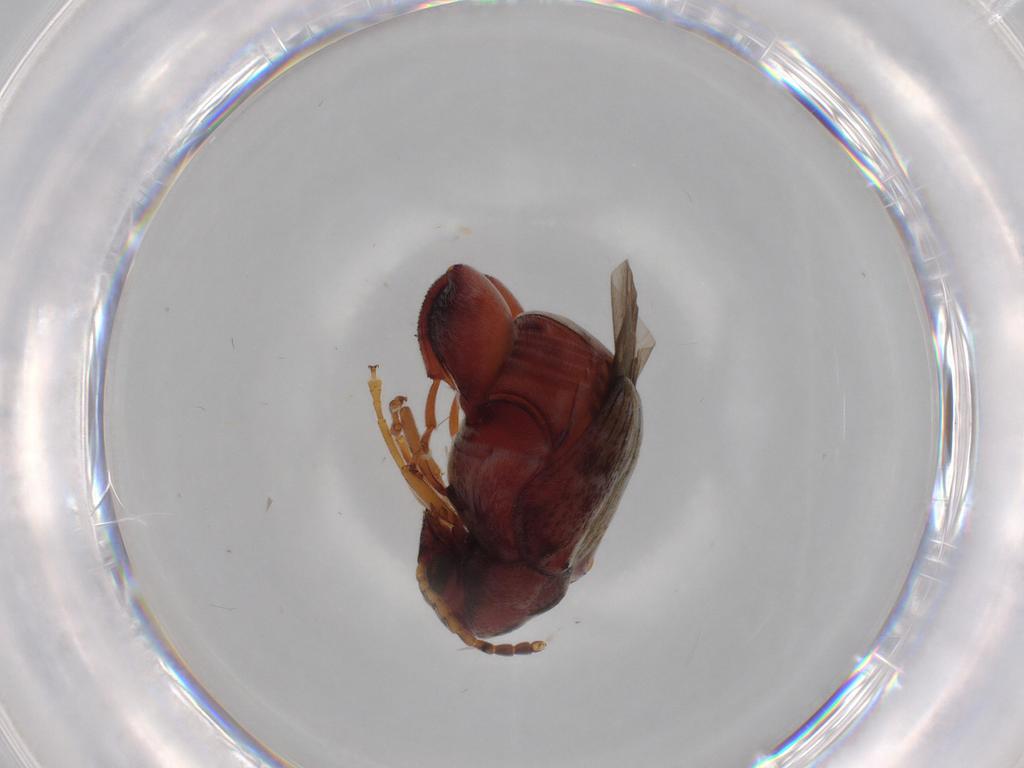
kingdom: Animalia
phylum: Arthropoda
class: Insecta
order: Coleoptera
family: Chrysomelidae
